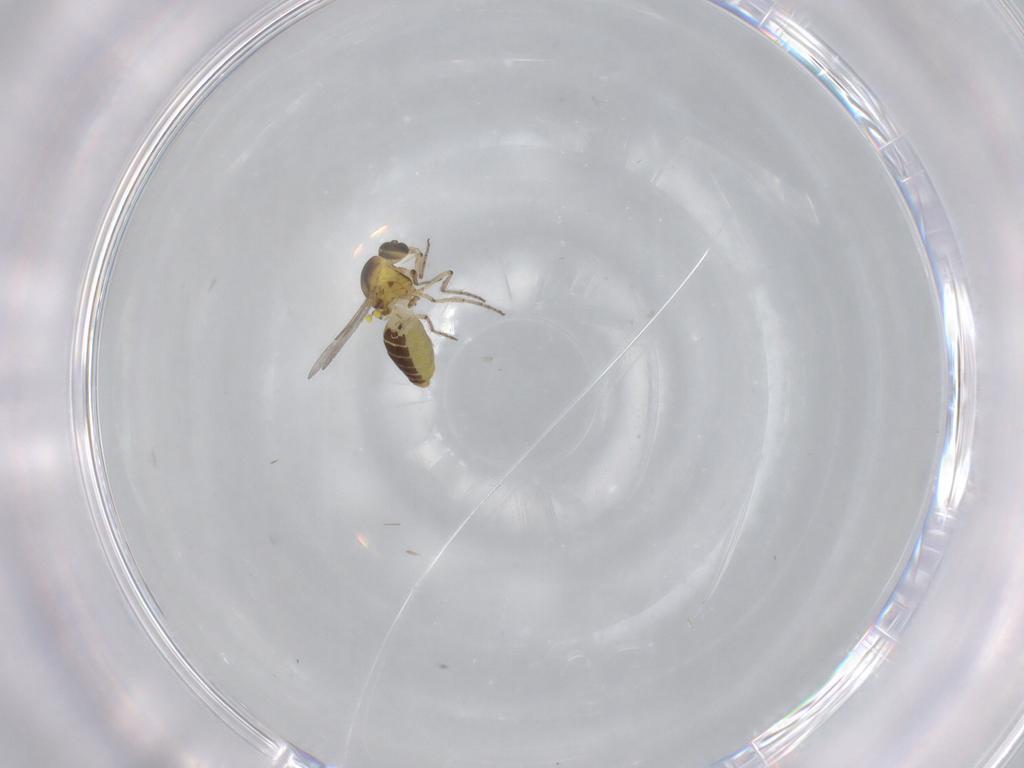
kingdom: Animalia
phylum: Arthropoda
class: Insecta
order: Diptera
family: Ceratopogonidae
